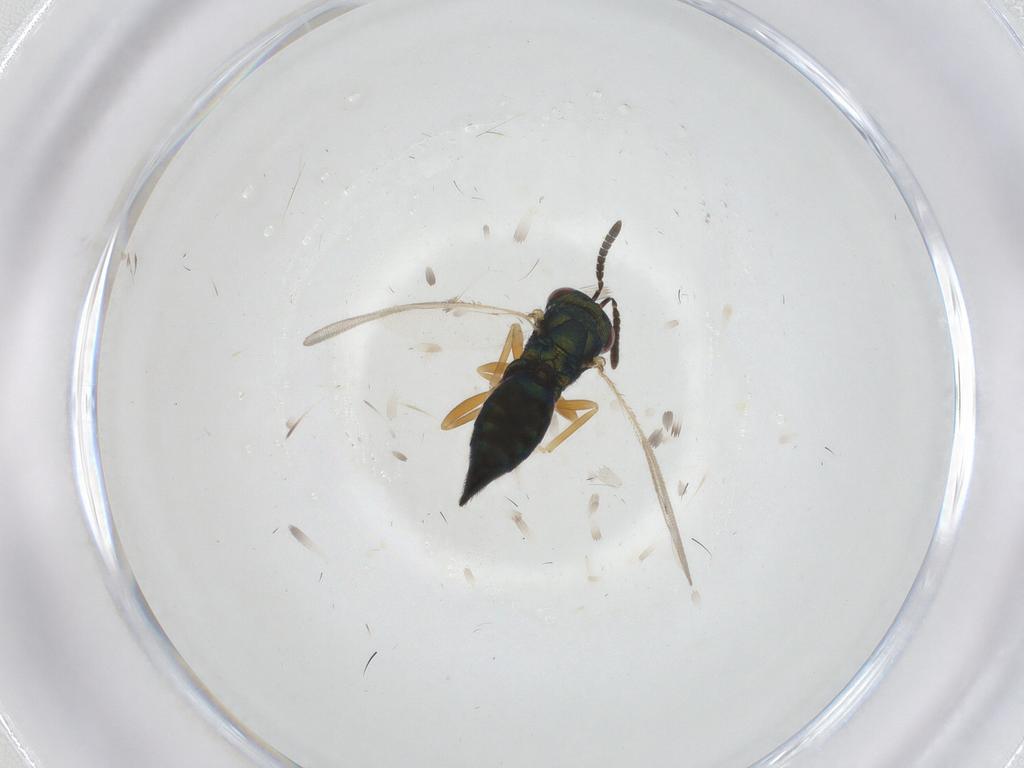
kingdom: Animalia
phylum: Arthropoda
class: Insecta
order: Hymenoptera
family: Pteromalidae
